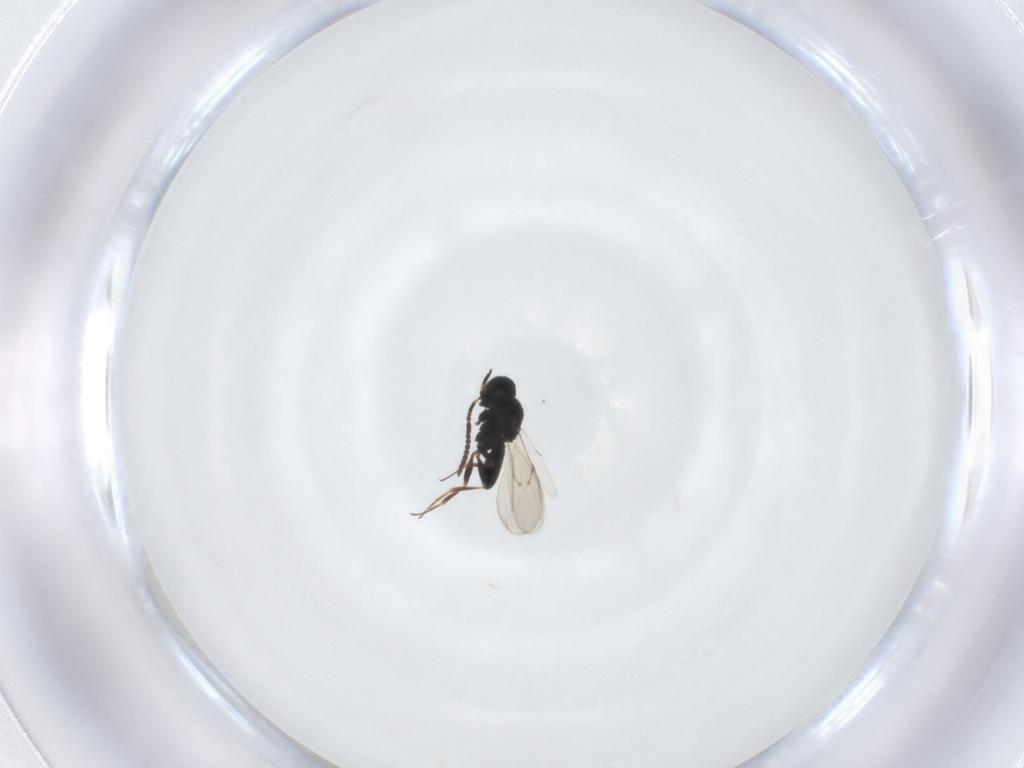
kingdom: Animalia
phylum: Arthropoda
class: Insecta
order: Hymenoptera
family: Scelionidae
